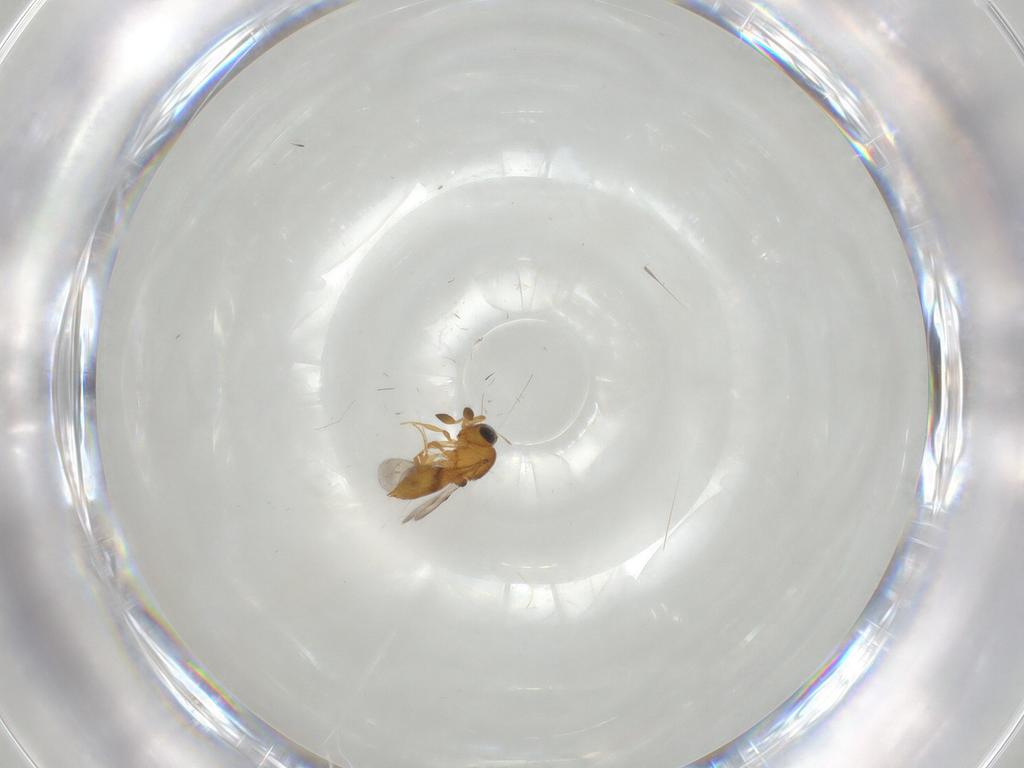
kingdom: Animalia
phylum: Arthropoda
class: Insecta
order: Hymenoptera
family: Scelionidae
